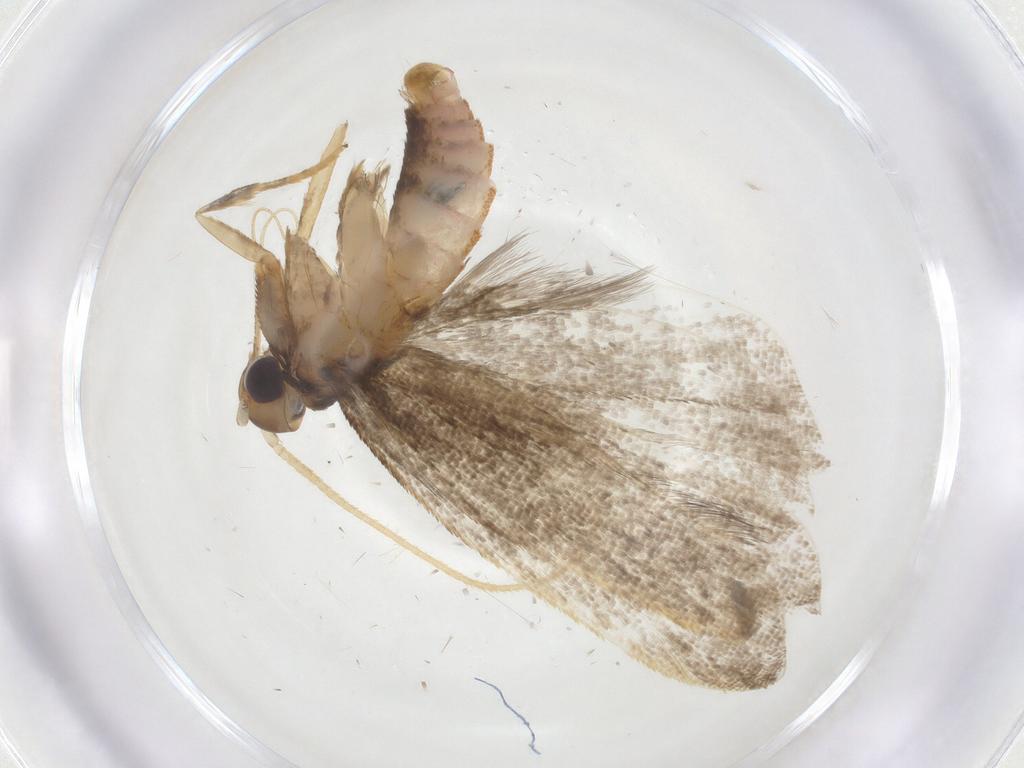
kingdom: Animalia
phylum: Arthropoda
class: Insecta
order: Lepidoptera
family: Lecithoceridae
